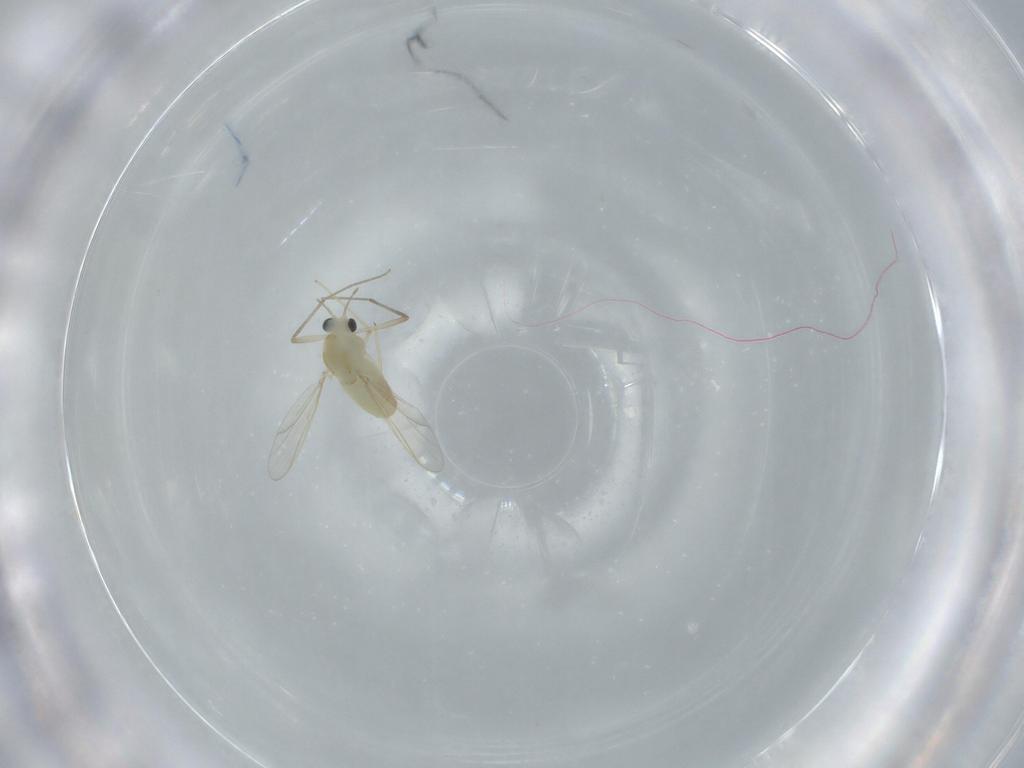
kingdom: Animalia
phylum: Arthropoda
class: Insecta
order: Diptera
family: Chironomidae
